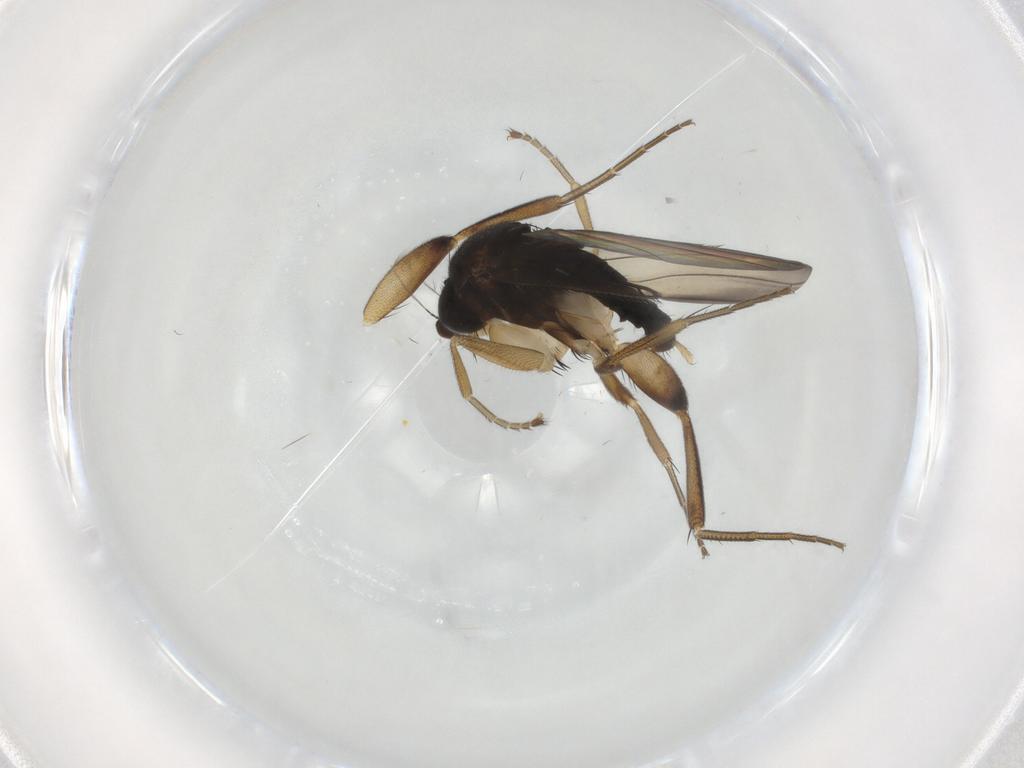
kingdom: Animalia
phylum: Arthropoda
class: Insecta
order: Diptera
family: Phoridae
